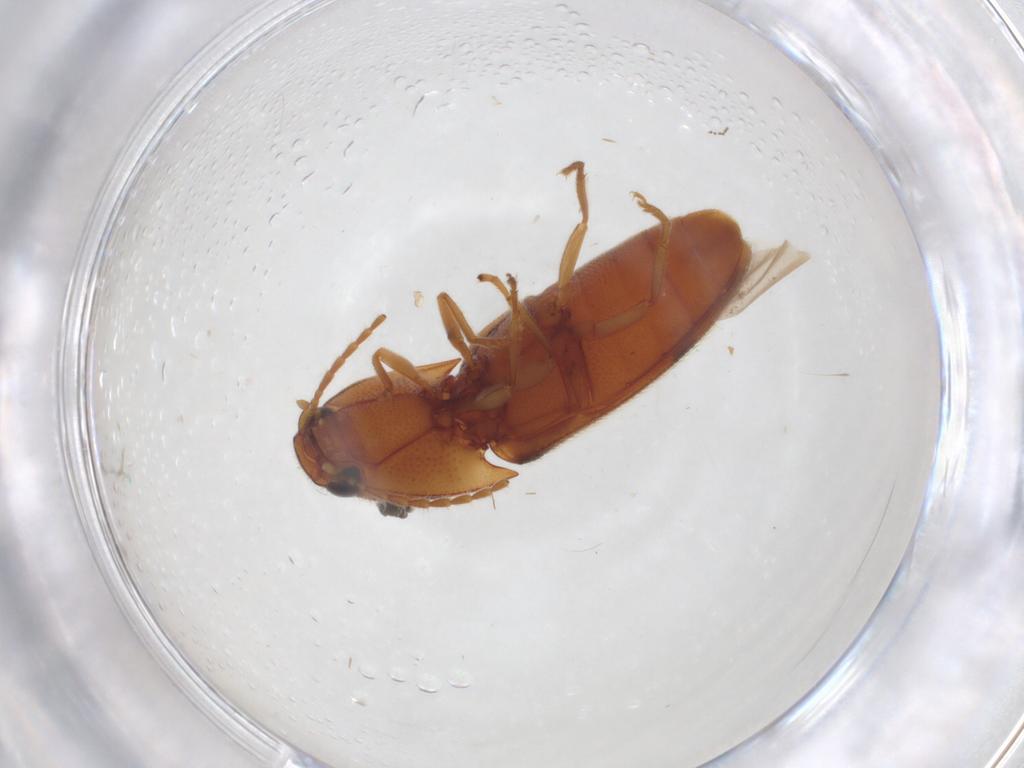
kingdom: Animalia
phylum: Arthropoda
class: Insecta
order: Coleoptera
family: Elateridae
